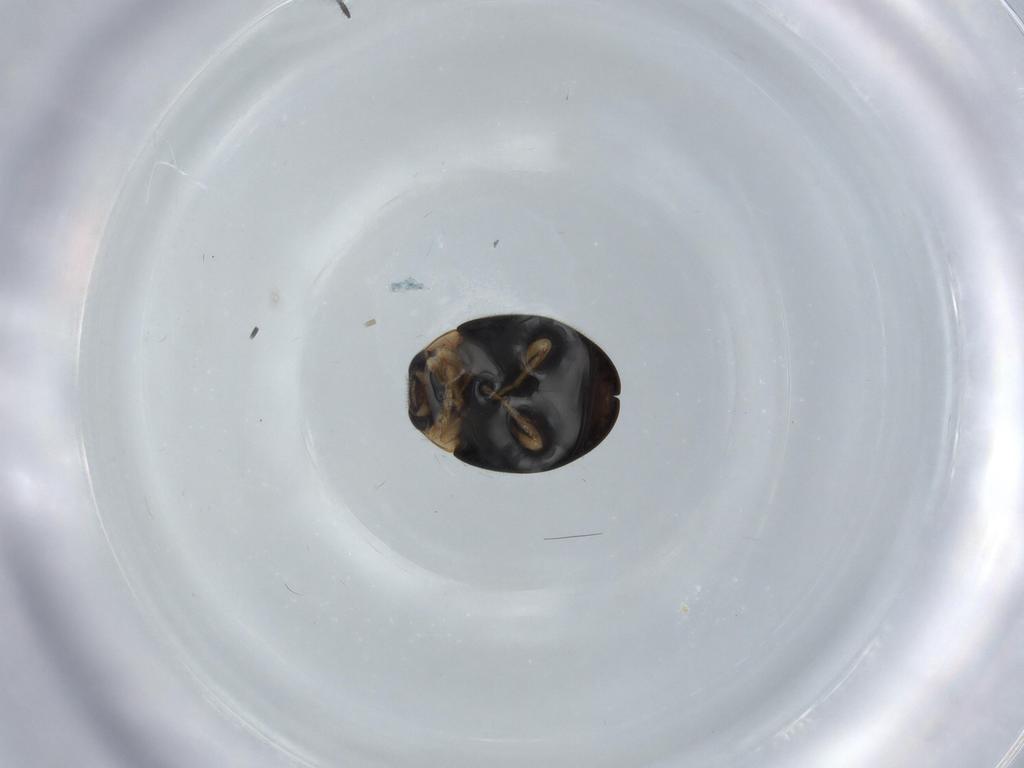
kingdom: Animalia
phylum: Arthropoda
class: Insecta
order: Coleoptera
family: Coccinellidae
